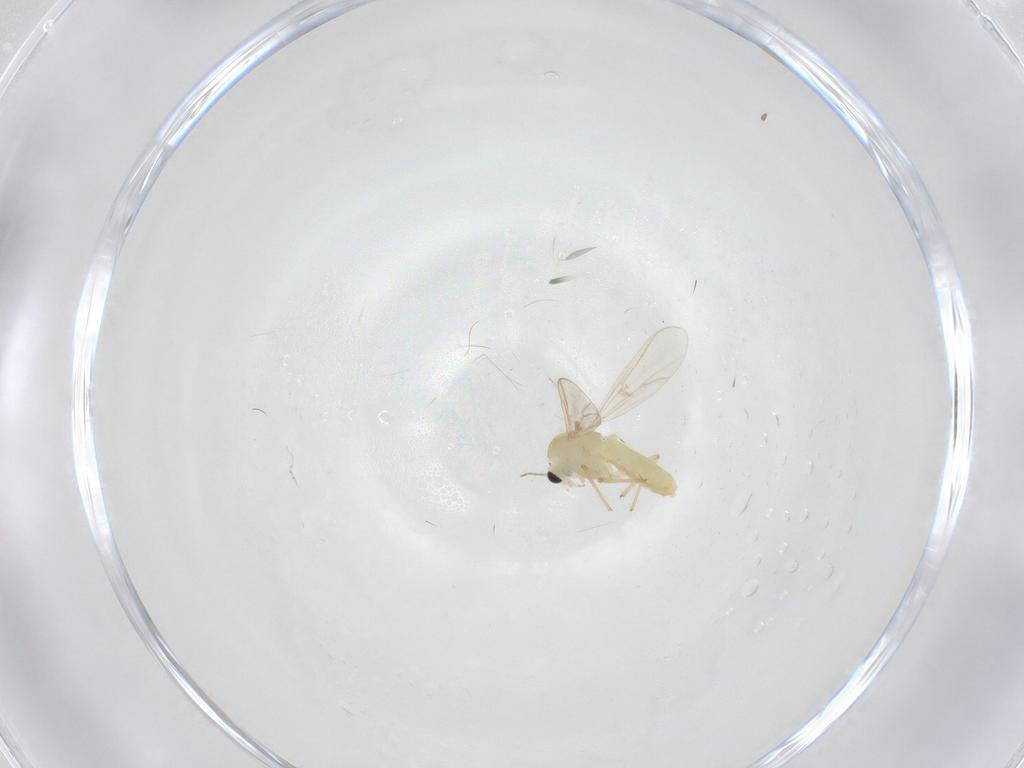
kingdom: Animalia
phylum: Arthropoda
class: Insecta
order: Diptera
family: Chironomidae
